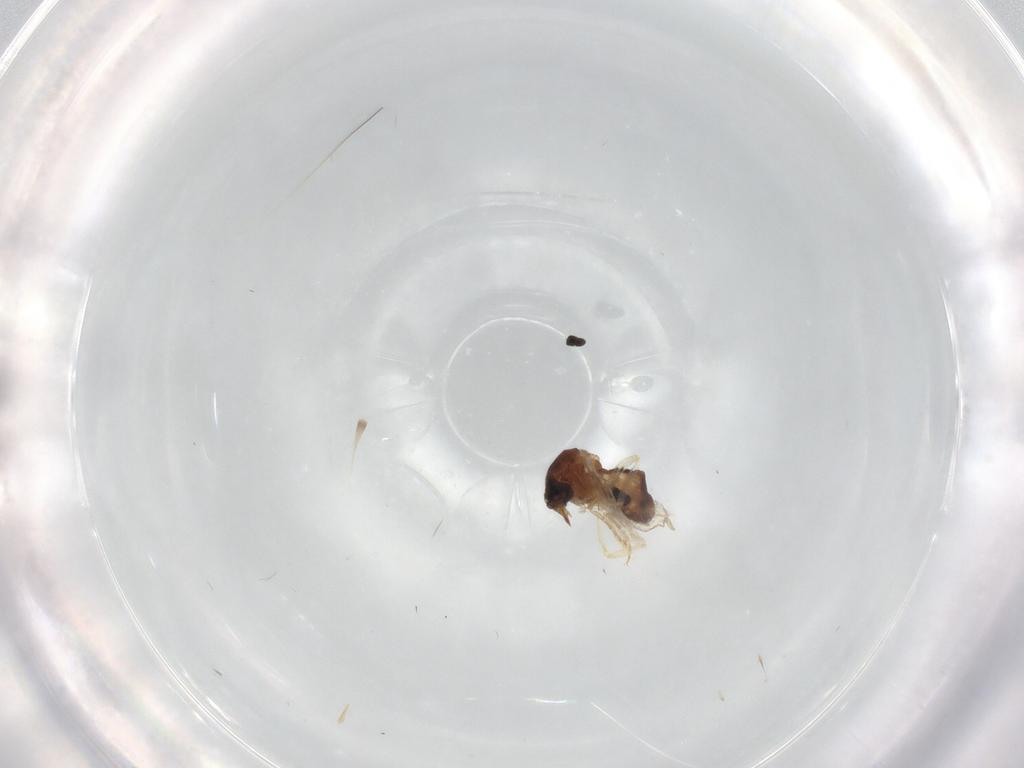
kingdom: Animalia
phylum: Arthropoda
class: Insecta
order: Diptera
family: Ceratopogonidae
